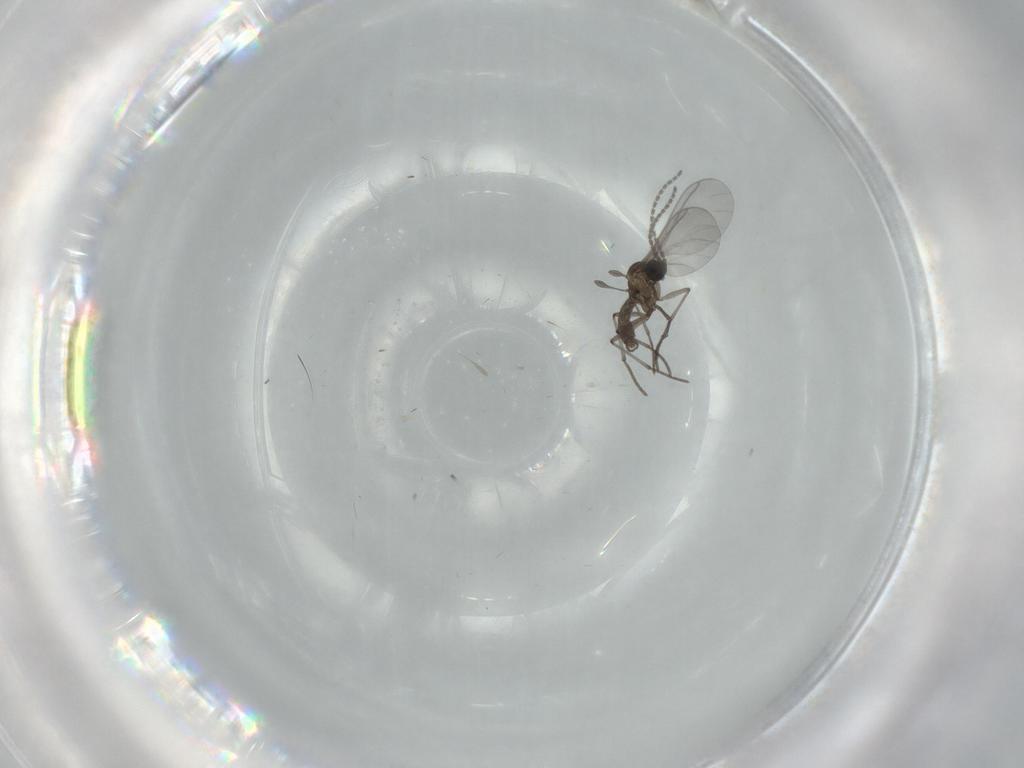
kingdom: Animalia
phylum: Arthropoda
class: Insecta
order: Diptera
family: Sciaridae
